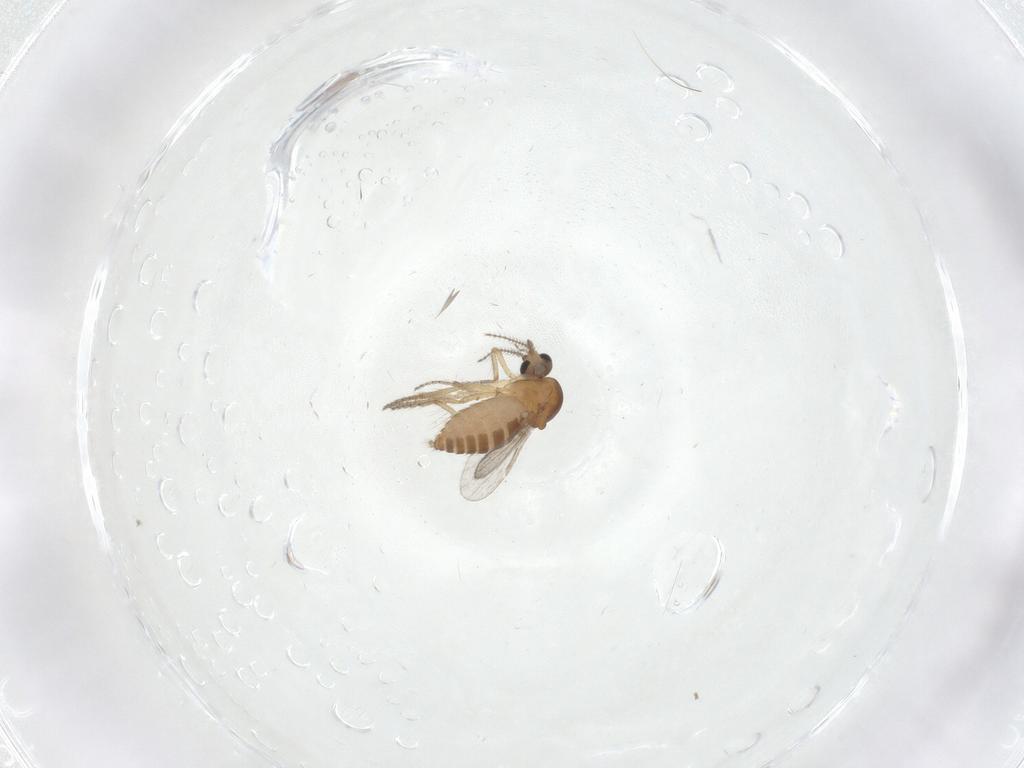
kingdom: Animalia
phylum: Arthropoda
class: Insecta
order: Diptera
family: Ceratopogonidae
